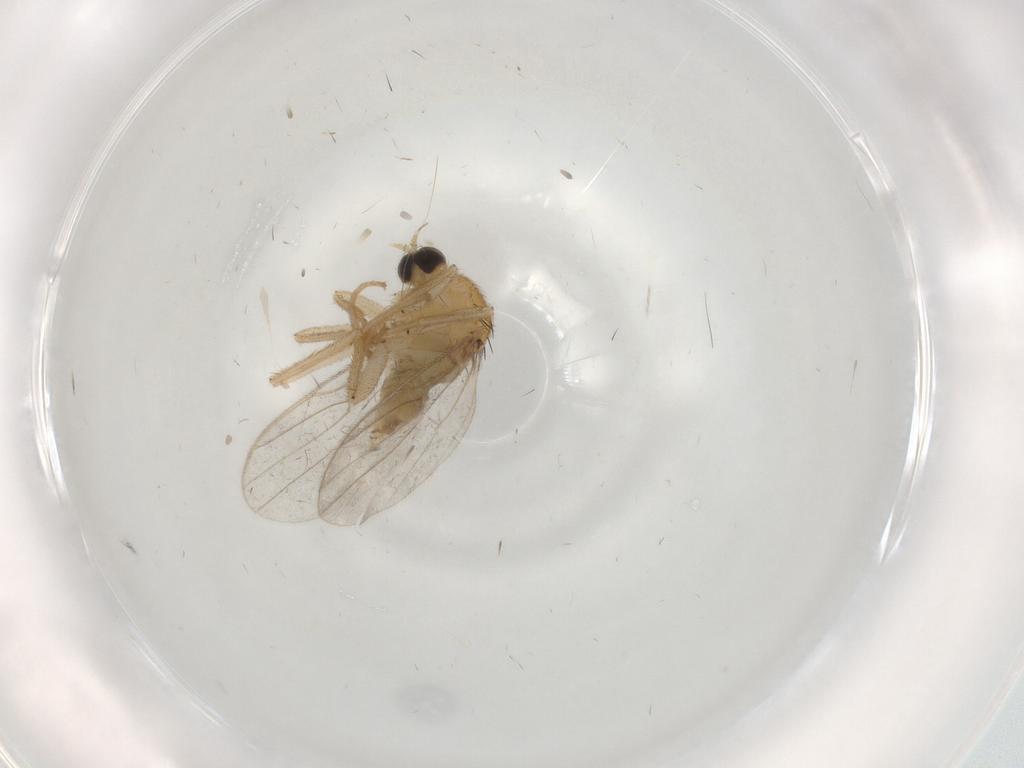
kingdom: Animalia
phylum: Arthropoda
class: Insecta
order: Diptera
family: Hybotidae
